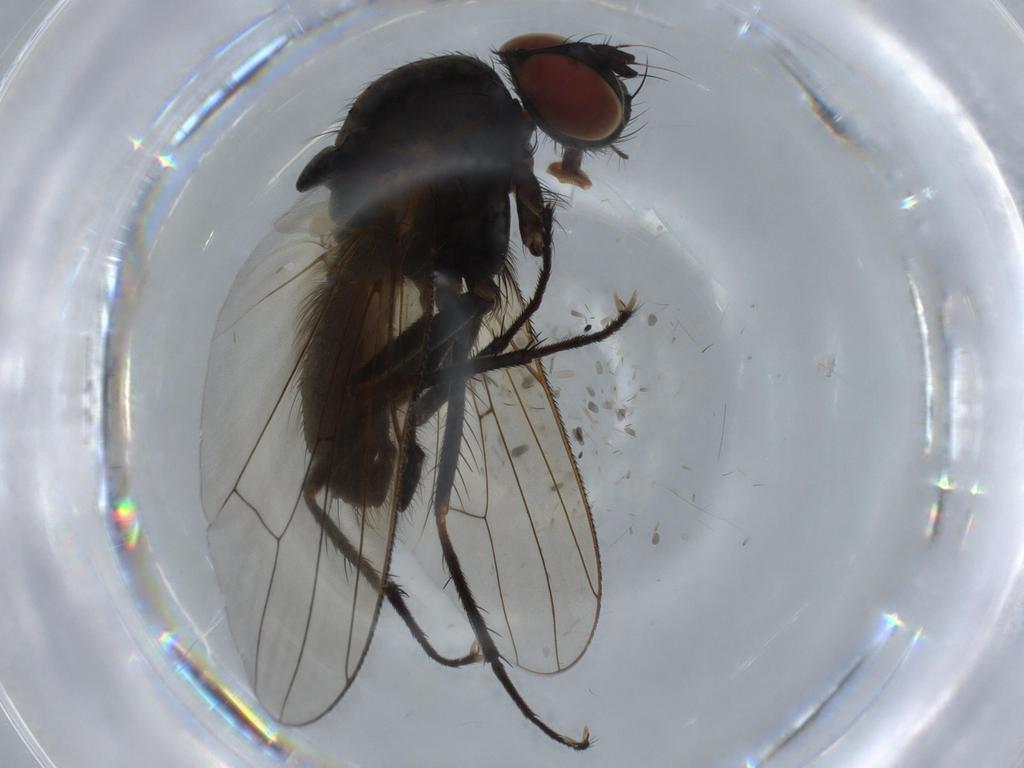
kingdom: Animalia
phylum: Arthropoda
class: Insecta
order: Diptera
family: Anthomyiidae
